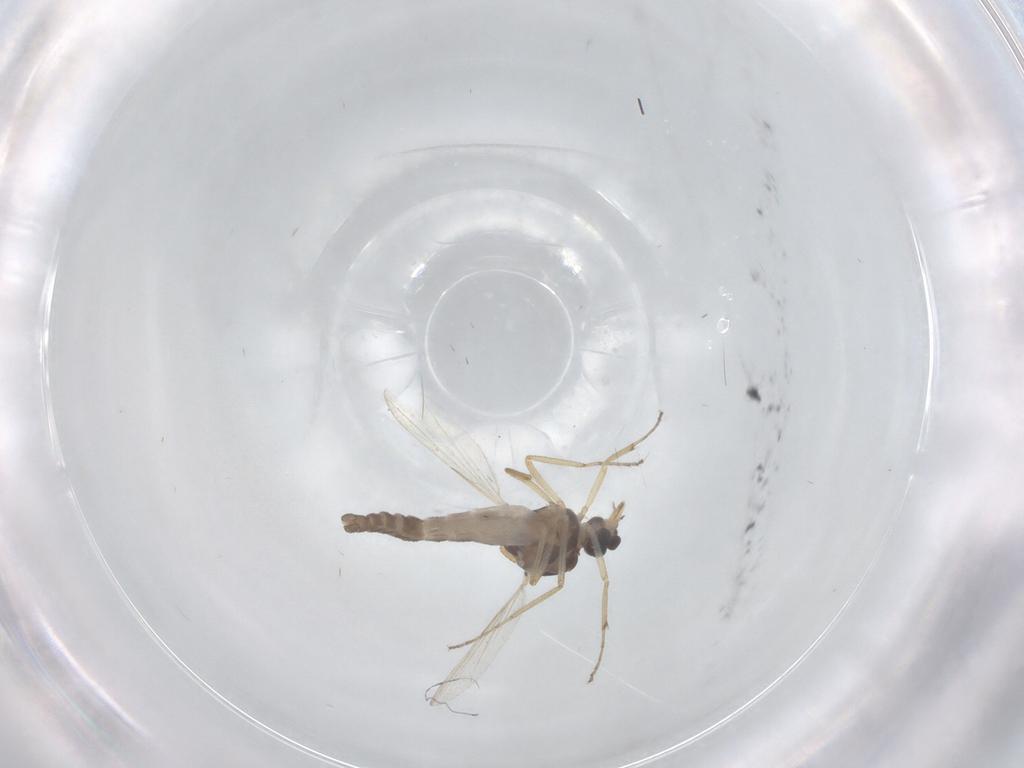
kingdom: Animalia
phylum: Arthropoda
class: Insecta
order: Diptera
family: Ceratopogonidae
